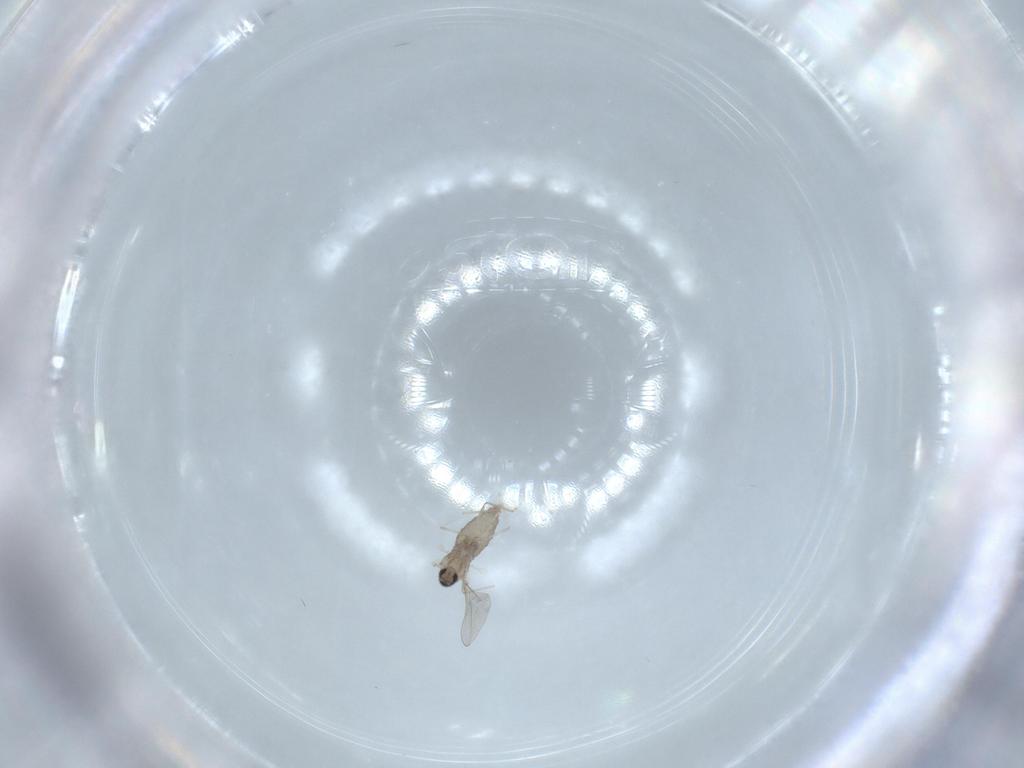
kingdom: Animalia
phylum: Arthropoda
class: Insecta
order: Diptera
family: Cecidomyiidae
